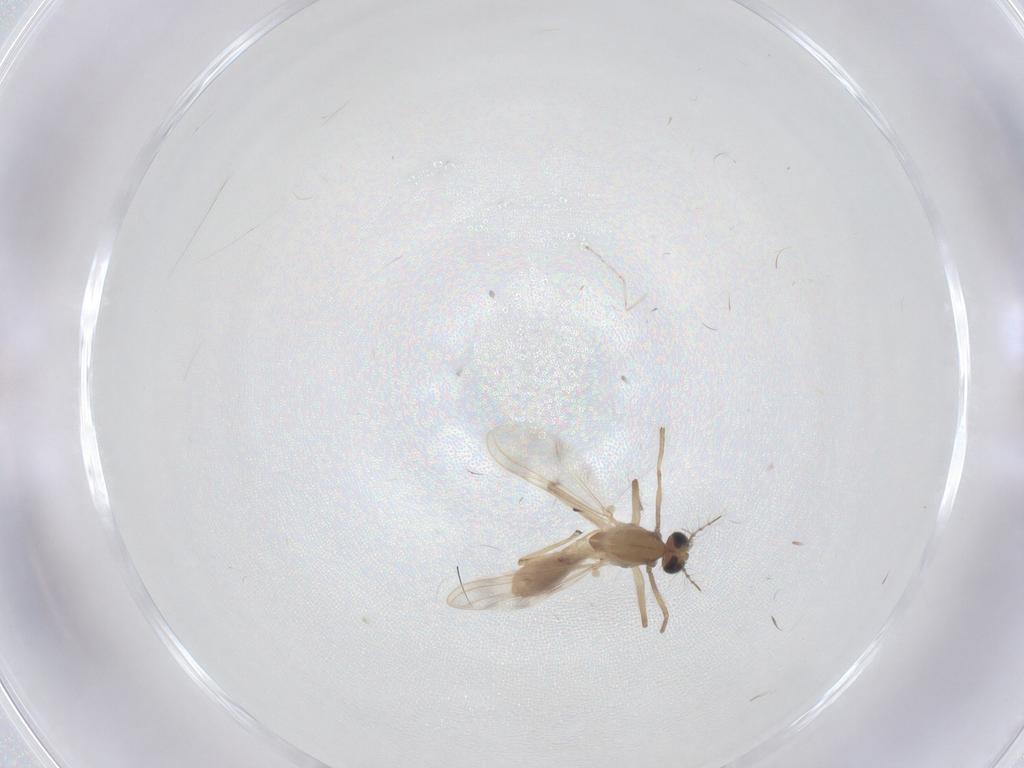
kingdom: Animalia
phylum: Arthropoda
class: Insecta
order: Diptera
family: Chironomidae
